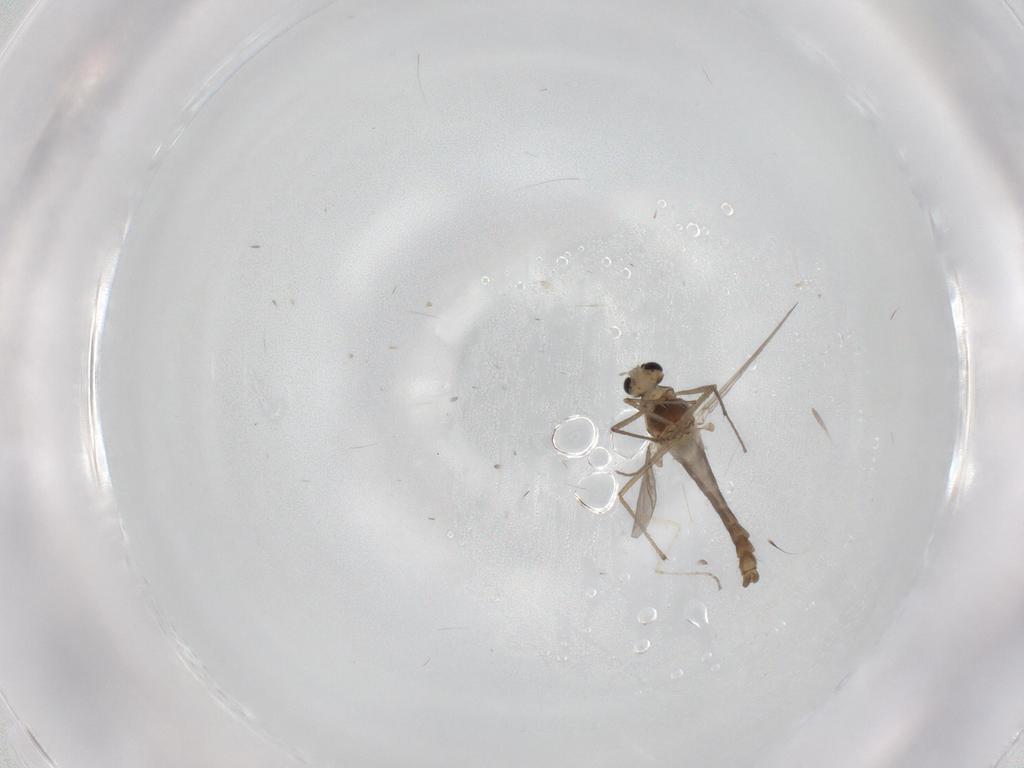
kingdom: Animalia
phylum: Arthropoda
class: Insecta
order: Diptera
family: Chironomidae
